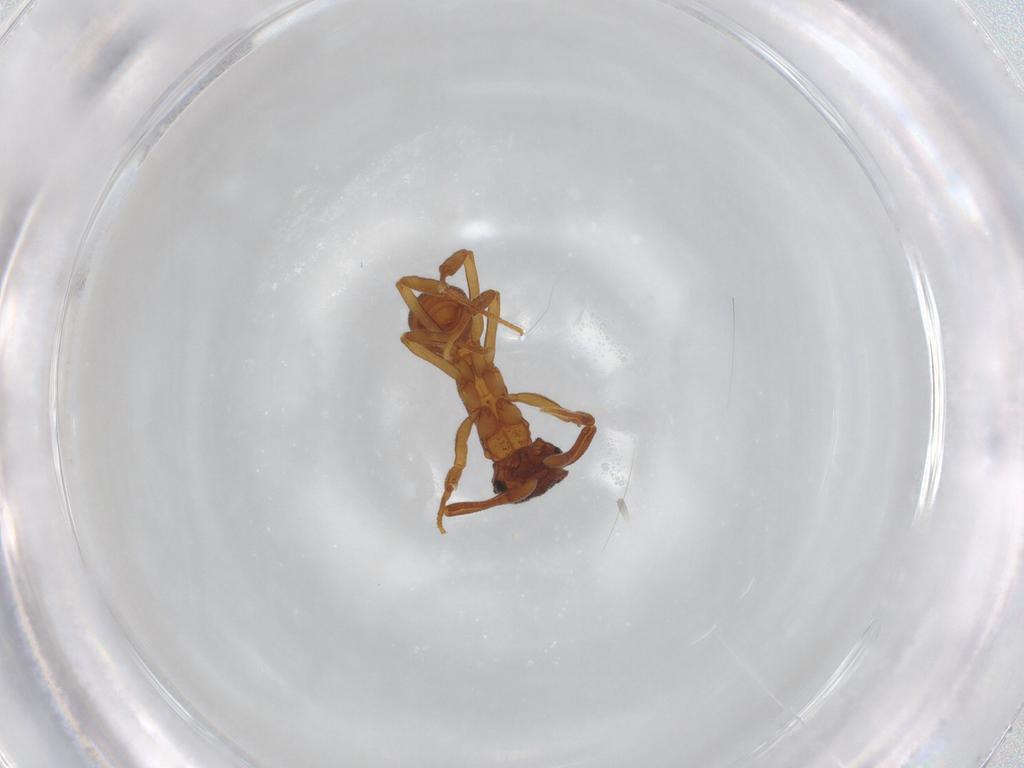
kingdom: Animalia
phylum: Arthropoda
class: Insecta
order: Hymenoptera
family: Formicidae
